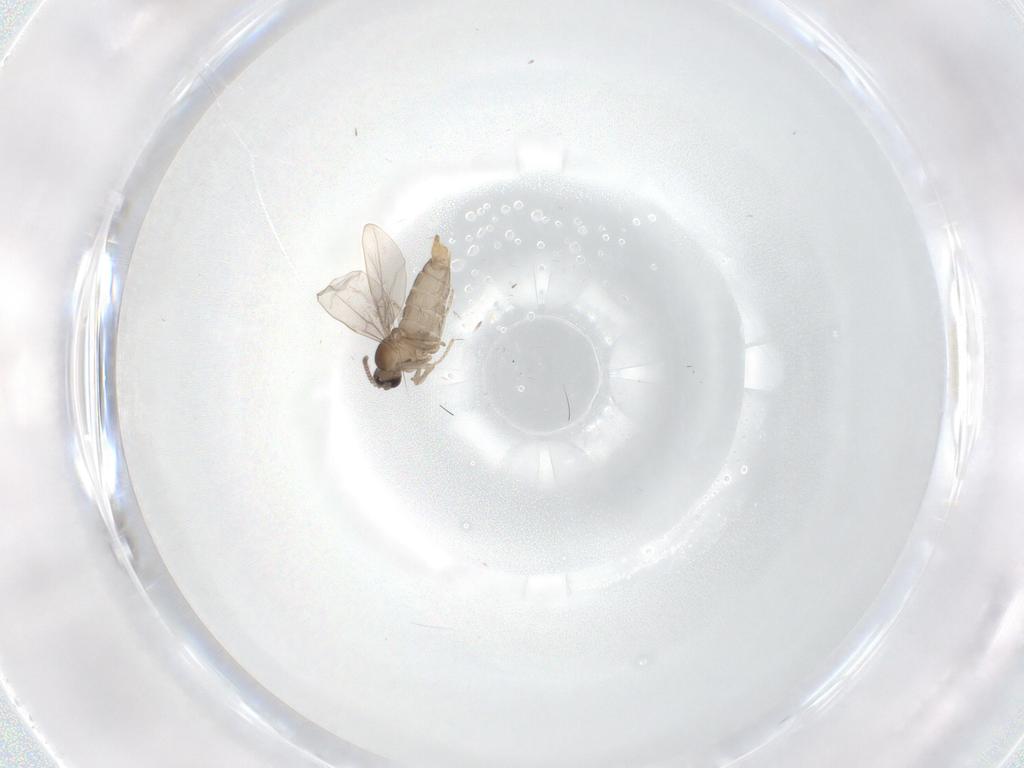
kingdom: Animalia
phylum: Arthropoda
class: Insecta
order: Diptera
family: Cecidomyiidae
